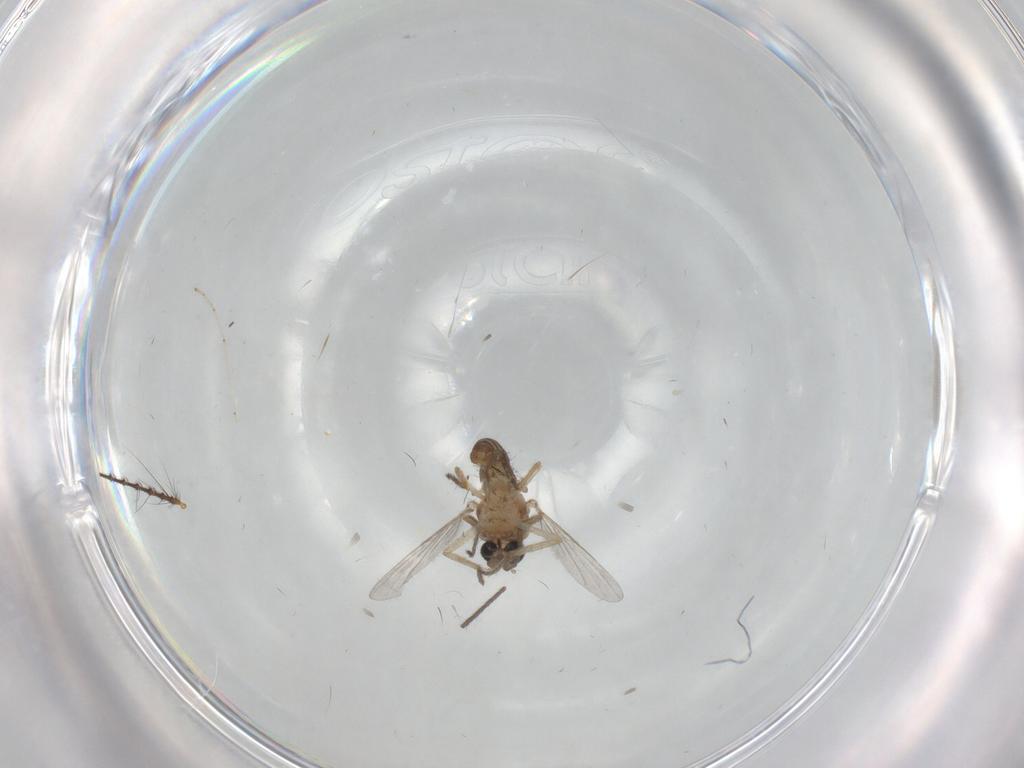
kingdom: Animalia
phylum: Arthropoda
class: Insecta
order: Diptera
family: Ceratopogonidae
